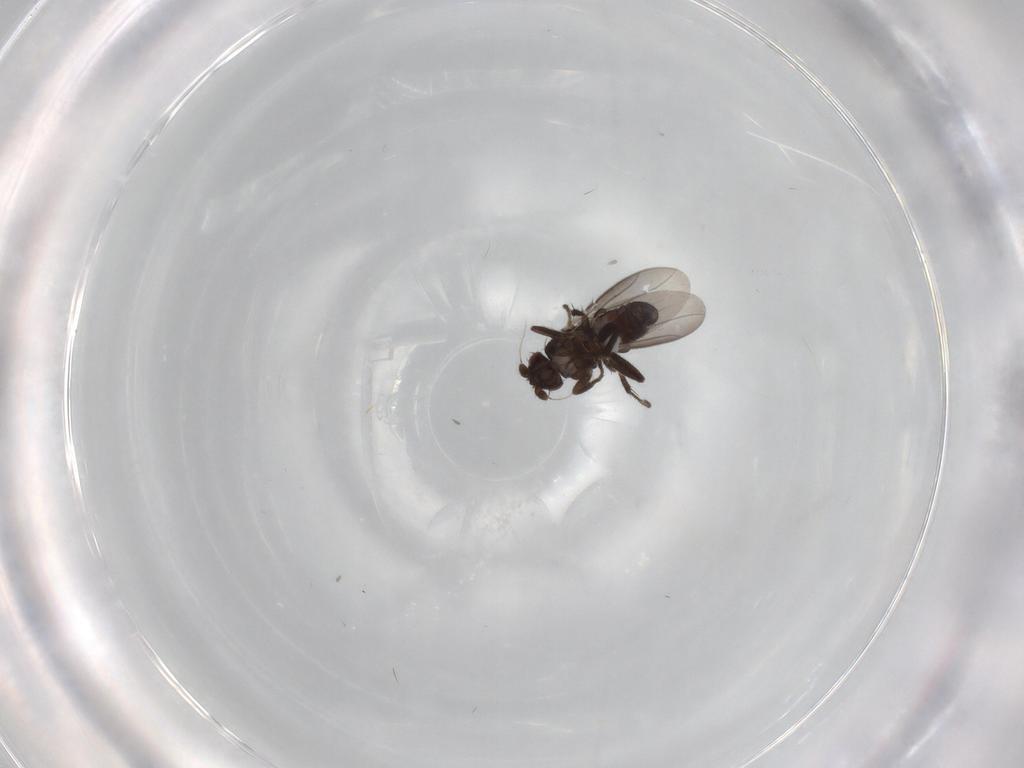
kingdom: Animalia
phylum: Arthropoda
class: Insecta
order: Diptera
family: Sphaeroceridae
